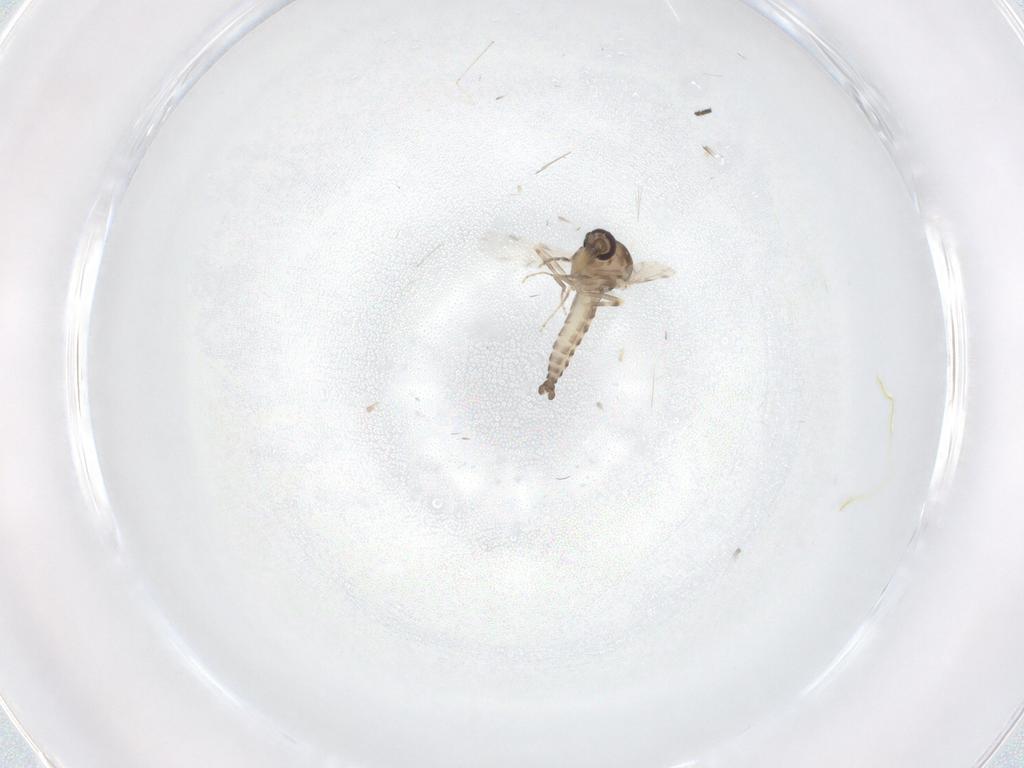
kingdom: Animalia
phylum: Arthropoda
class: Insecta
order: Diptera
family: Ceratopogonidae
